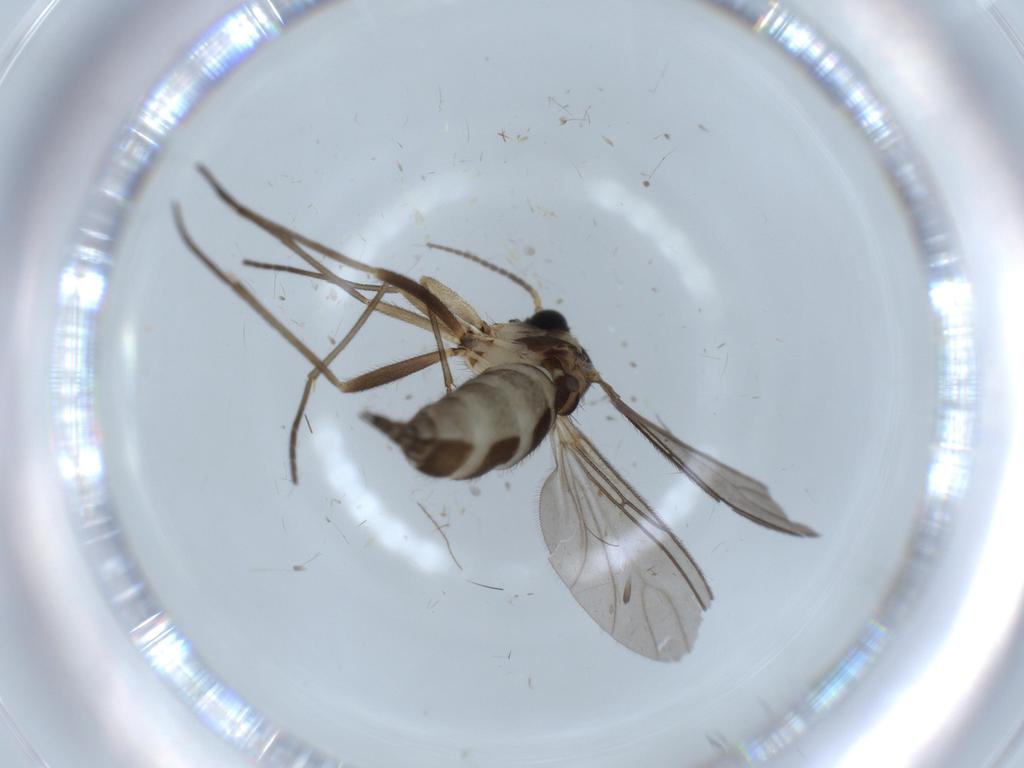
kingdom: Animalia
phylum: Arthropoda
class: Insecta
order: Diptera
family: Sciaridae
